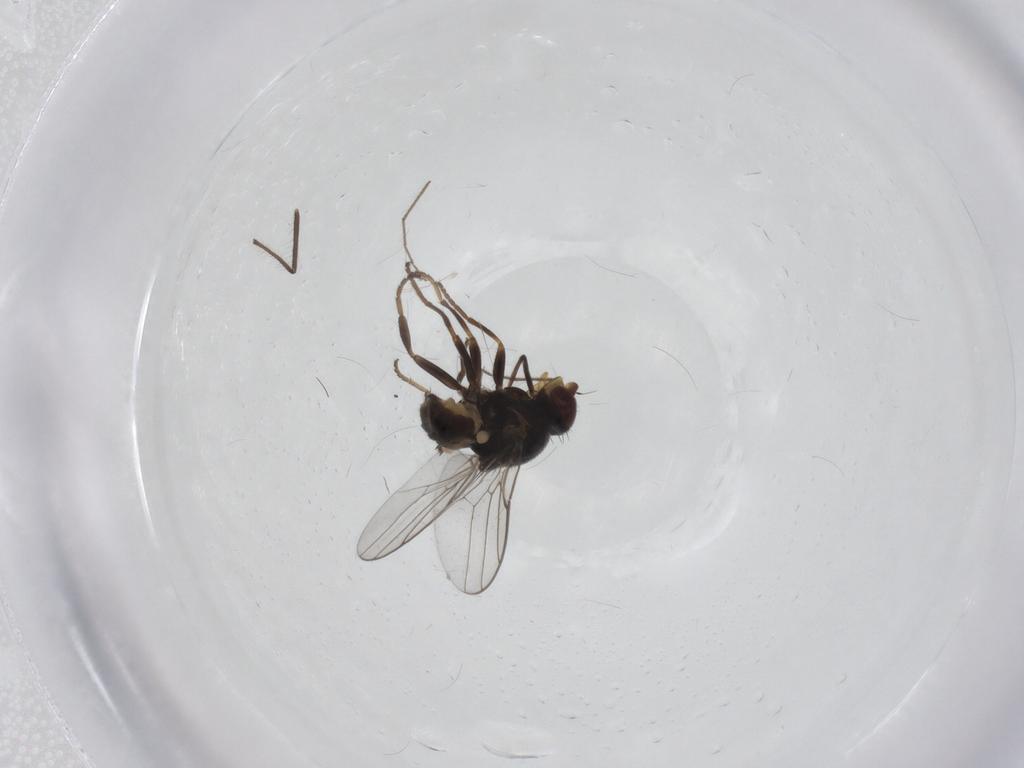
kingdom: Animalia
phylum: Arthropoda
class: Insecta
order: Diptera
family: Chloropidae
